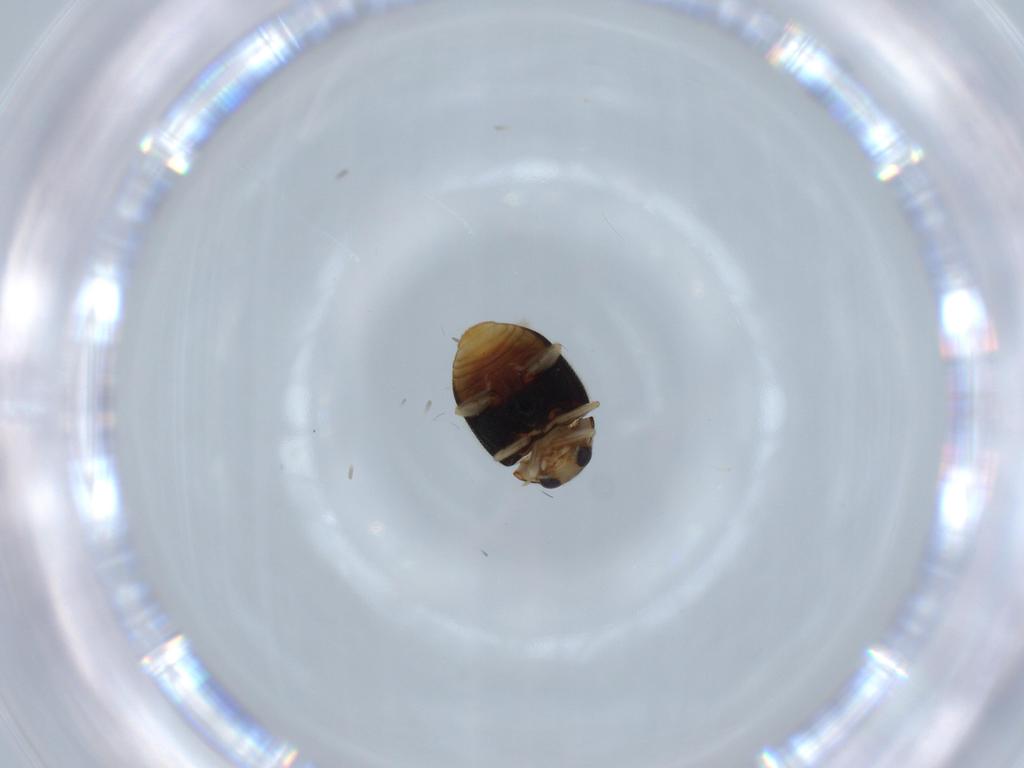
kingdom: Animalia
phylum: Arthropoda
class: Insecta
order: Coleoptera
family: Coccinellidae
